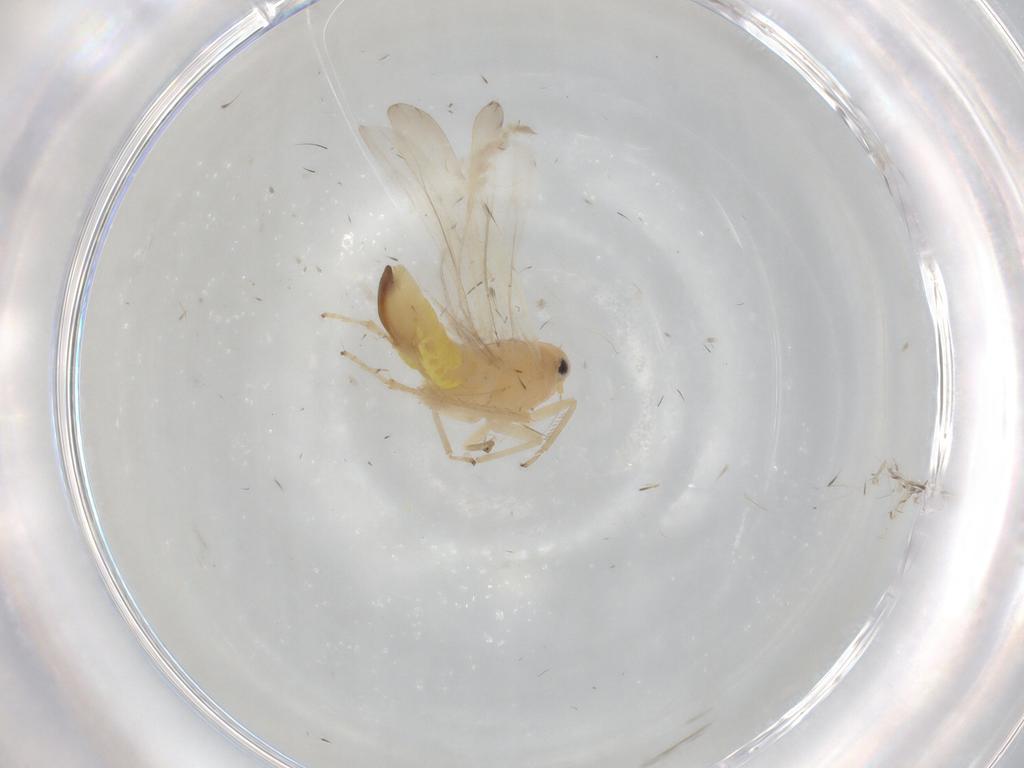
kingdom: Animalia
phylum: Arthropoda
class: Insecta
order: Hemiptera
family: Cicadellidae
